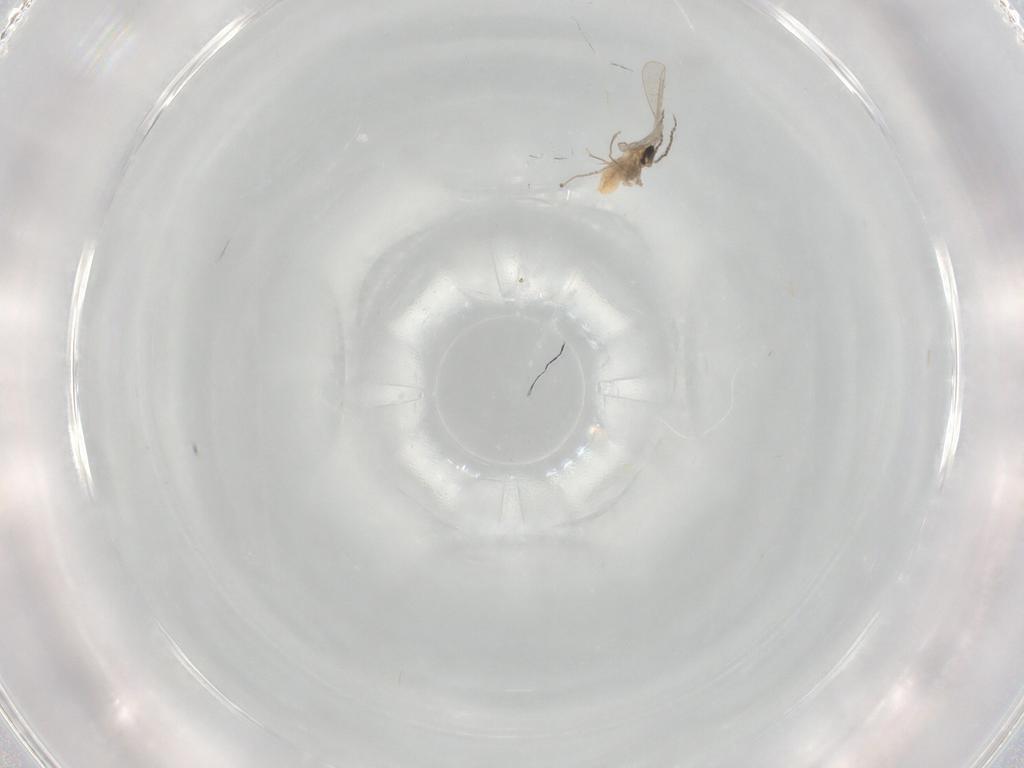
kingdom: Animalia
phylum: Arthropoda
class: Insecta
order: Diptera
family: Cecidomyiidae
